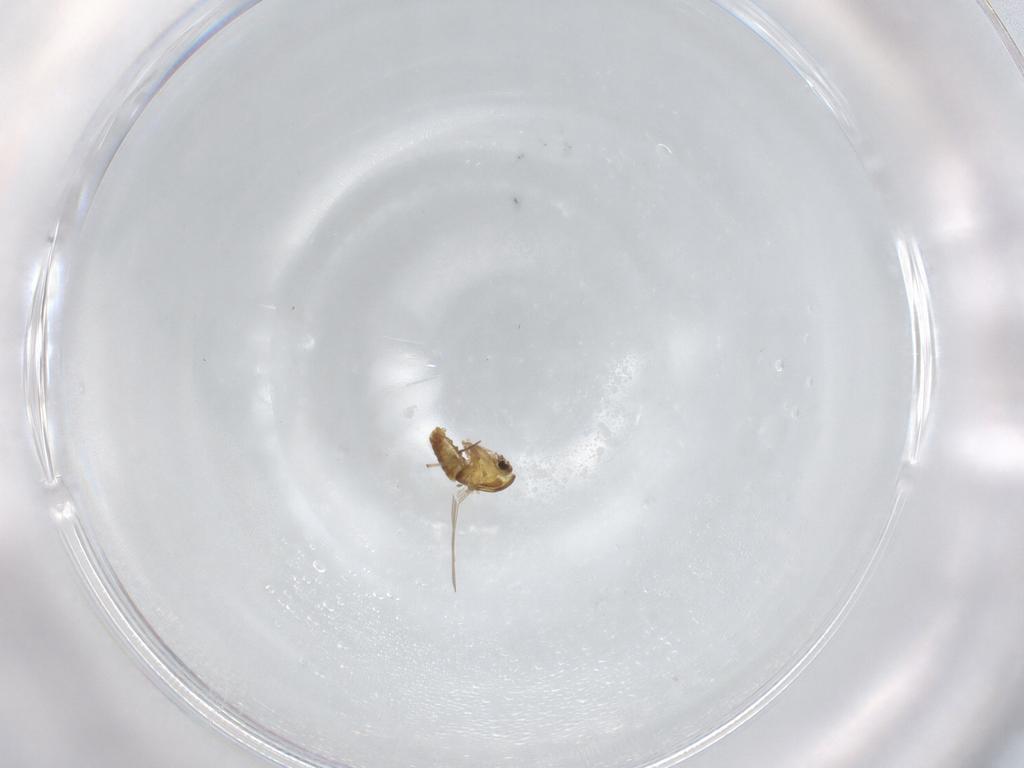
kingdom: Animalia
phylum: Arthropoda
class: Insecta
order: Diptera
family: Chironomidae
